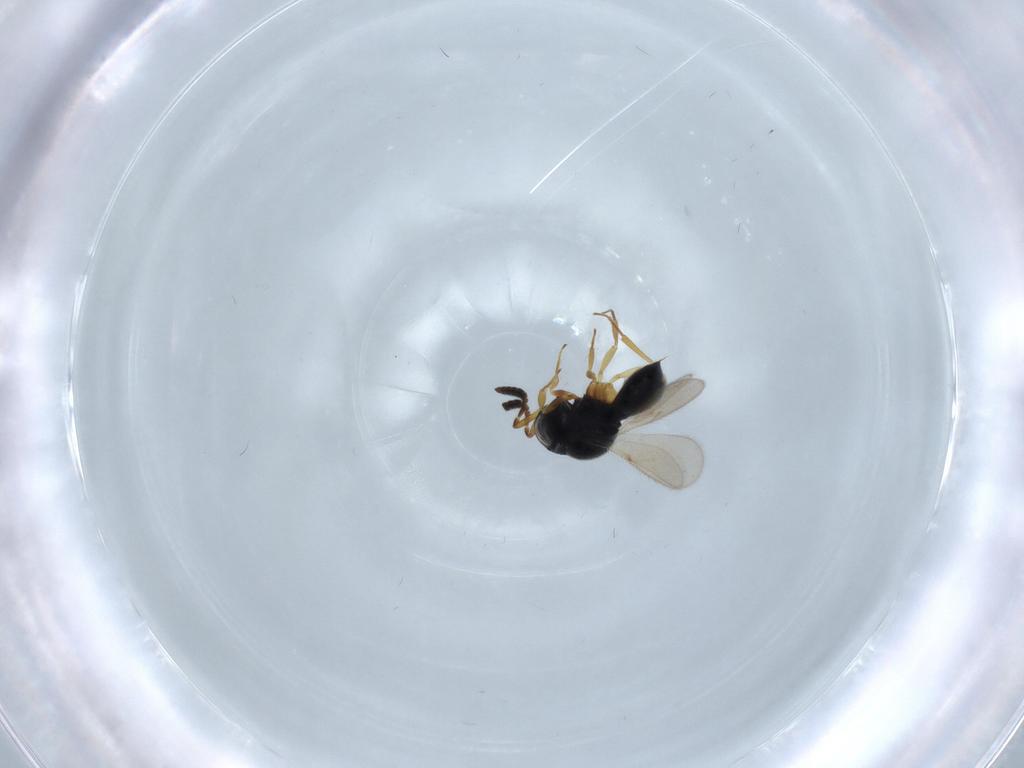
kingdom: Animalia
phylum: Arthropoda
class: Insecta
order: Hymenoptera
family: Scelionidae
